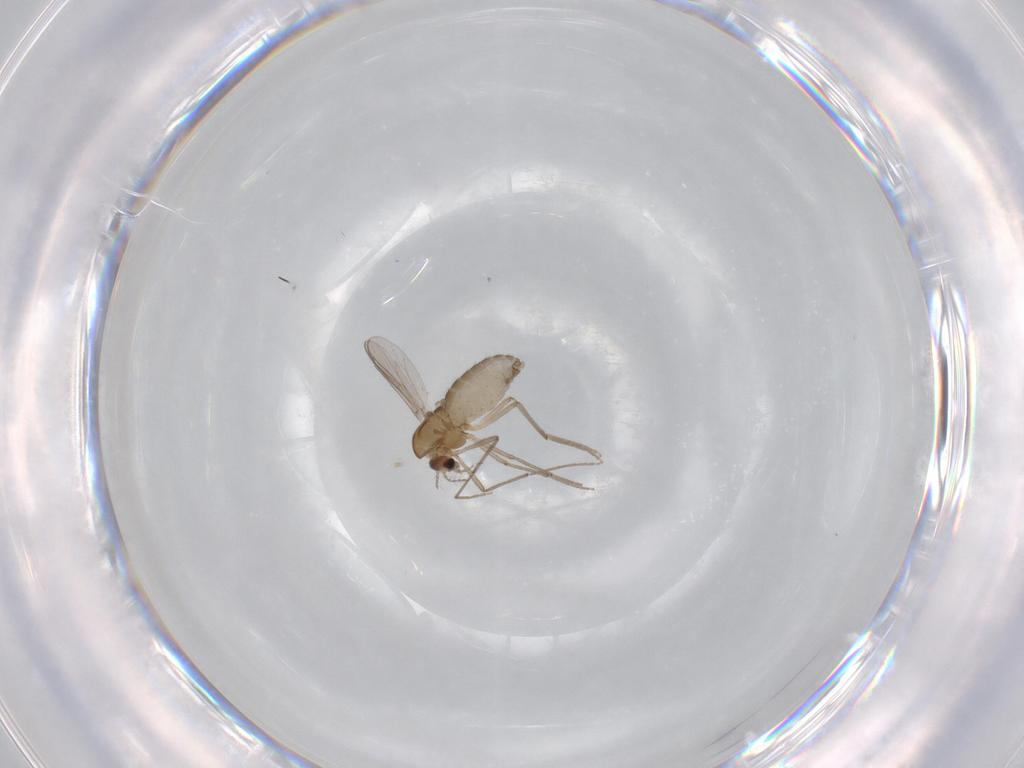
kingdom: Animalia
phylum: Arthropoda
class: Insecta
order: Diptera
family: Chironomidae
